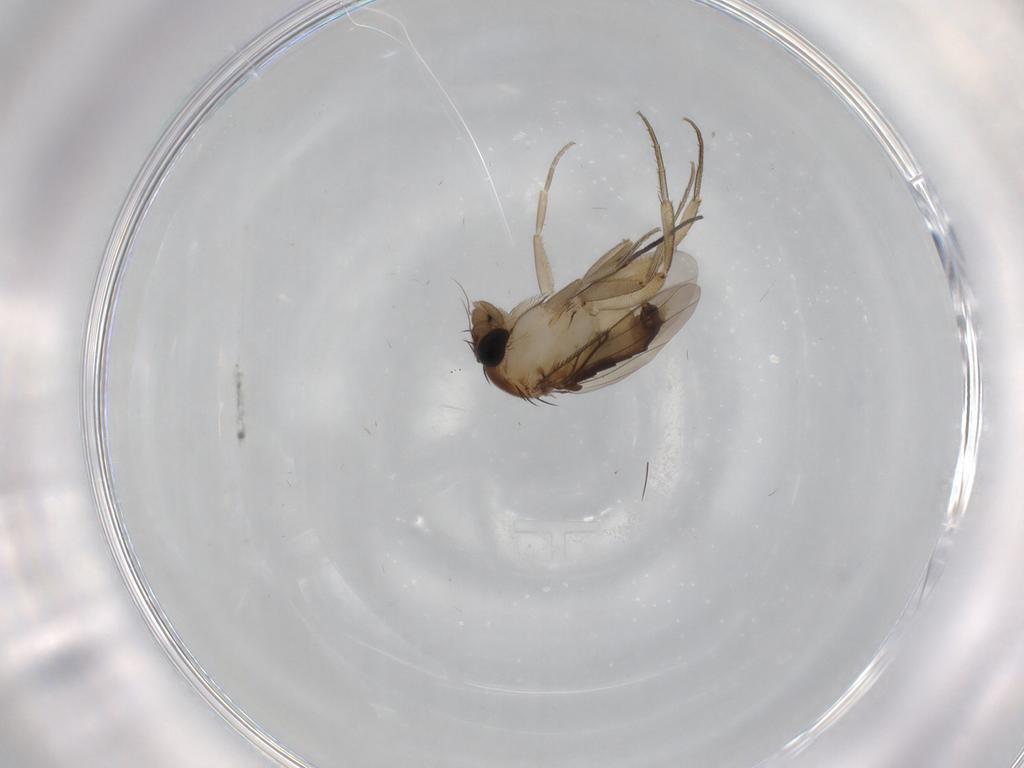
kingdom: Animalia
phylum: Arthropoda
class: Insecta
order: Diptera
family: Phoridae
